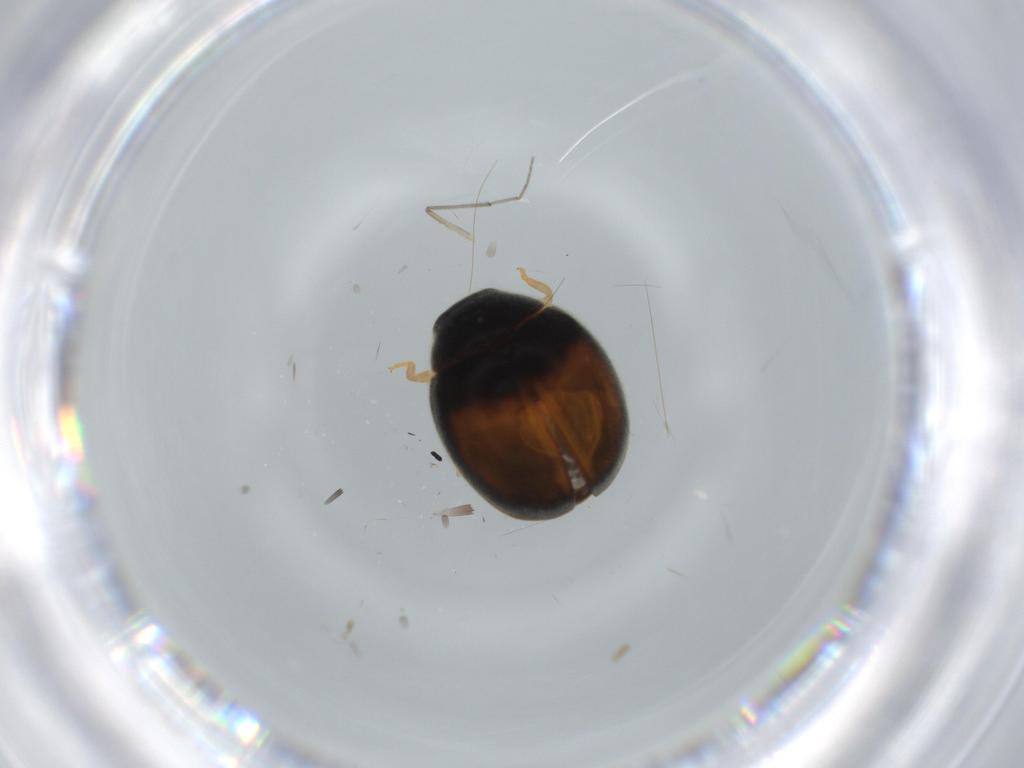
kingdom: Animalia
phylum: Arthropoda
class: Insecta
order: Coleoptera
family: Coccinellidae
